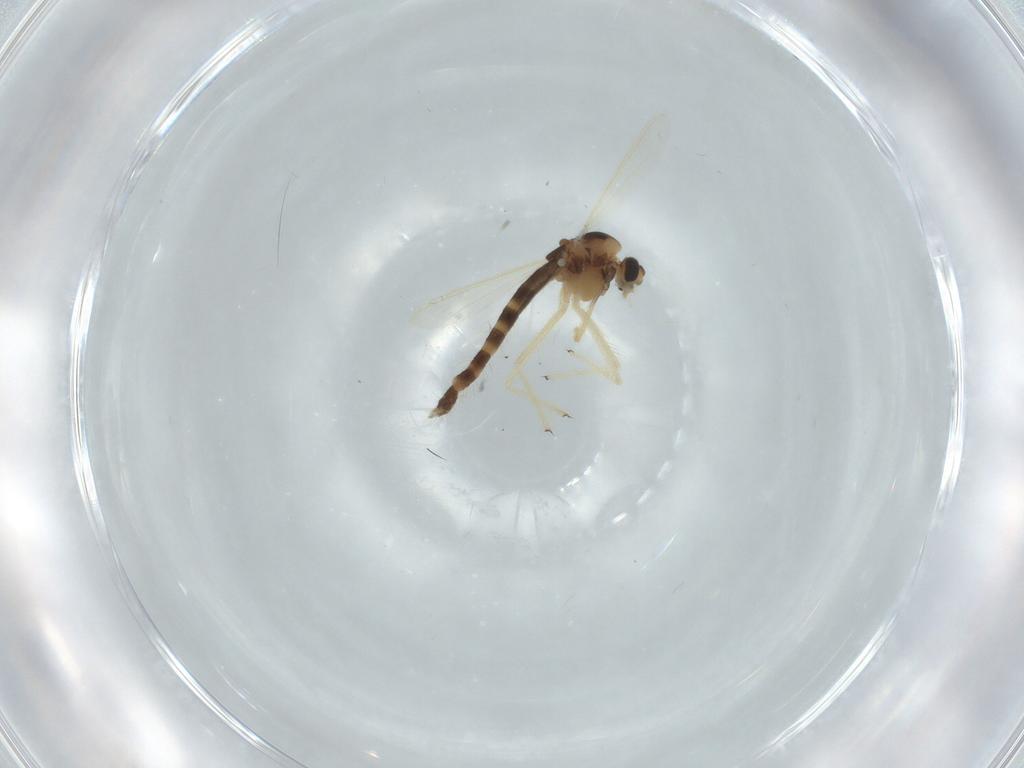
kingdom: Animalia
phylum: Arthropoda
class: Insecta
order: Diptera
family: Chironomidae
